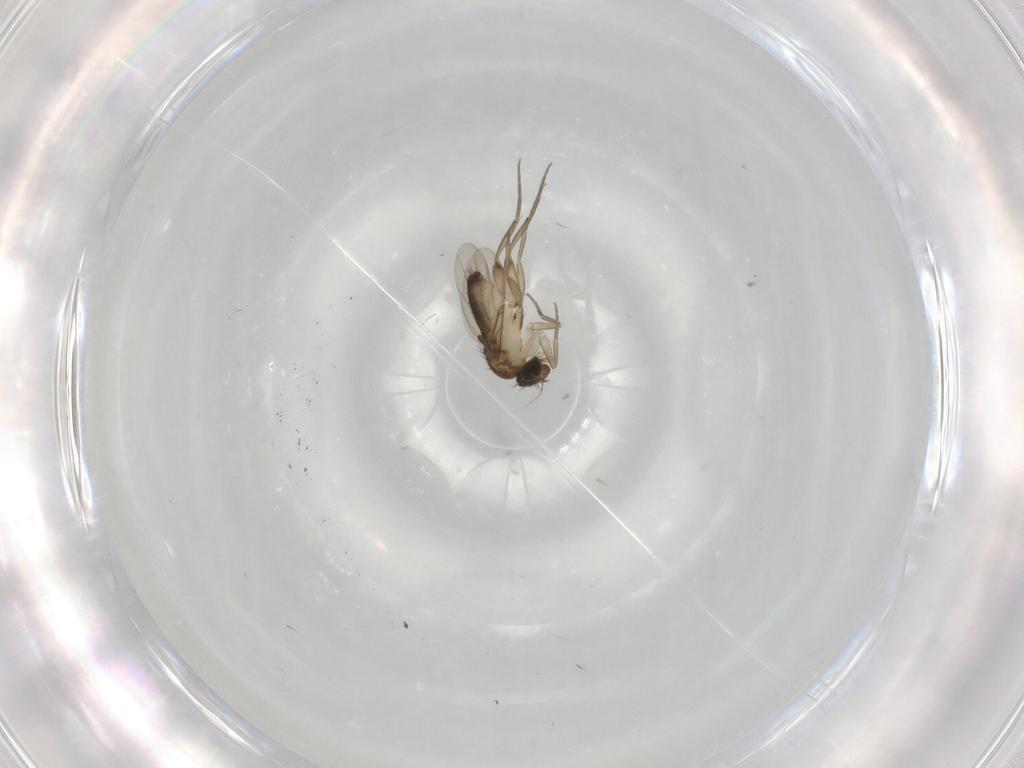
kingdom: Animalia
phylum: Arthropoda
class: Insecta
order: Diptera
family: Phoridae
